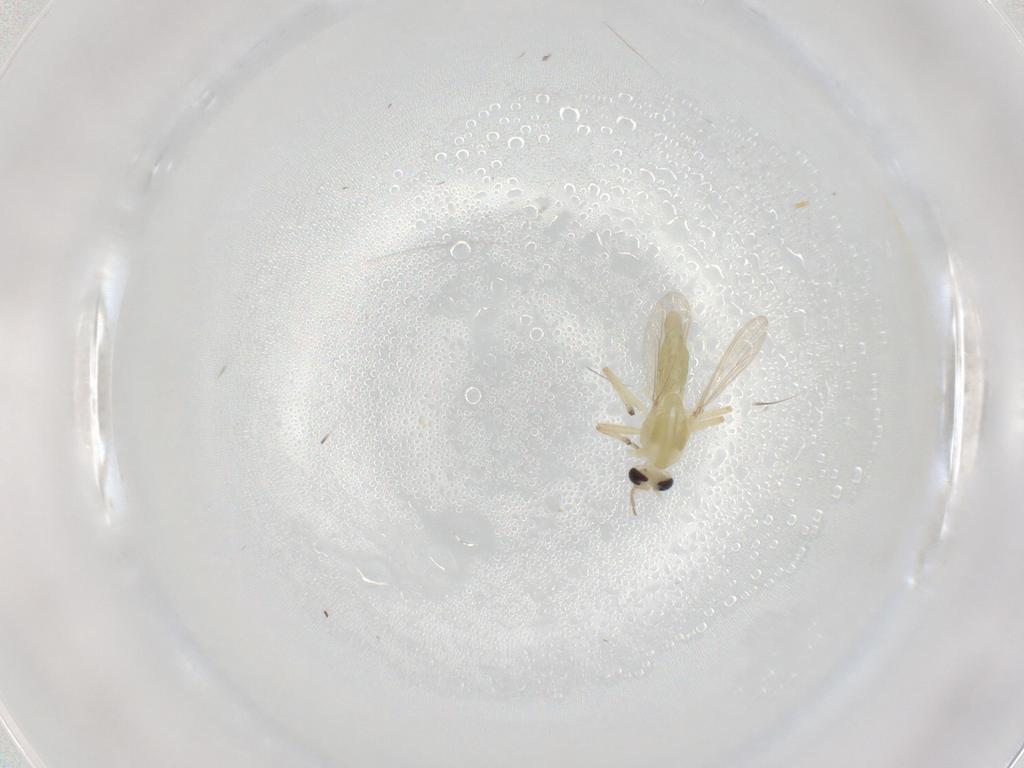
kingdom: Animalia
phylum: Arthropoda
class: Insecta
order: Diptera
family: Chironomidae
